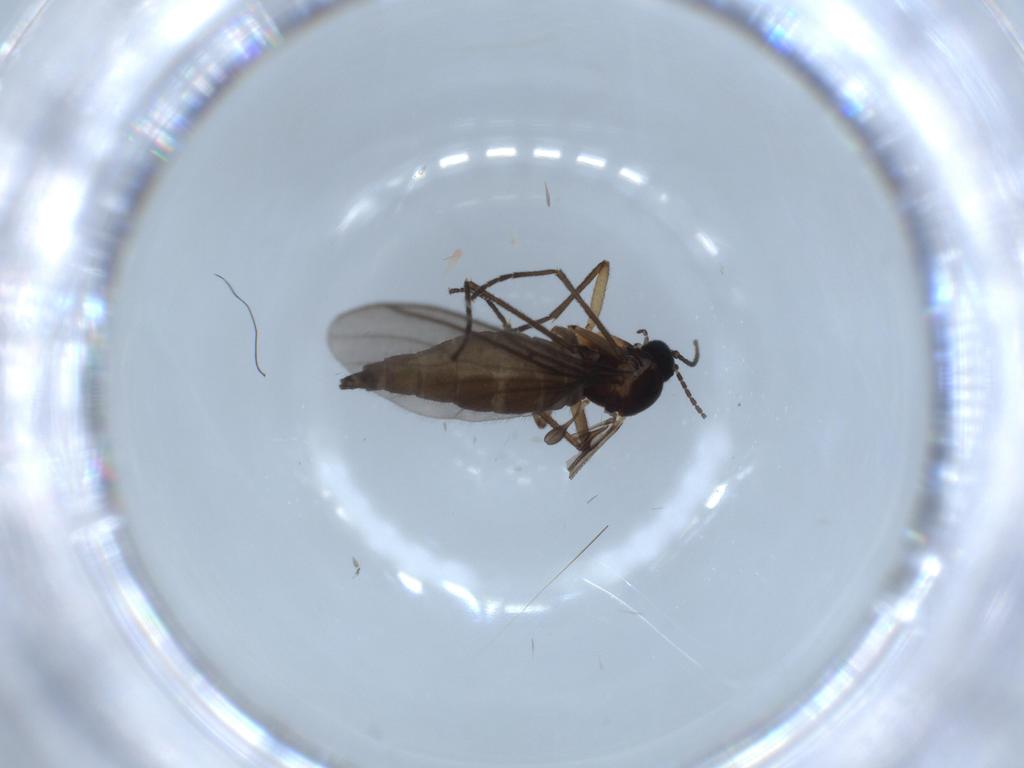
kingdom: Animalia
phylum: Arthropoda
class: Insecta
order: Diptera
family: Sciaridae
